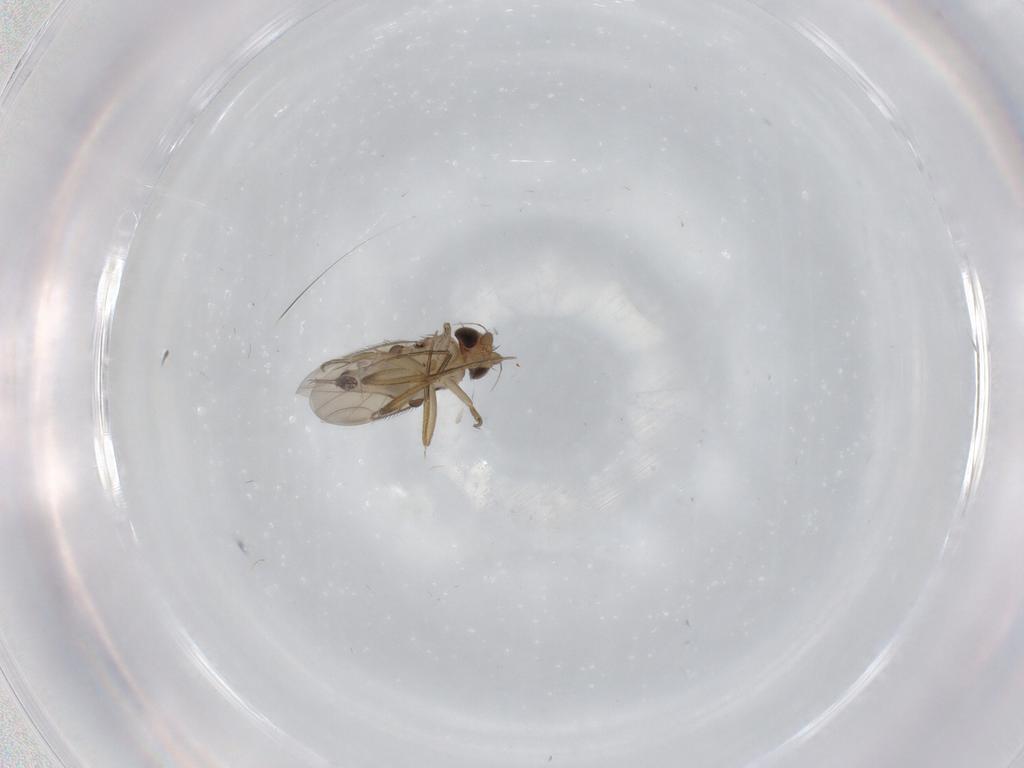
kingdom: Animalia
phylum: Arthropoda
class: Insecta
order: Diptera
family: Phoridae
